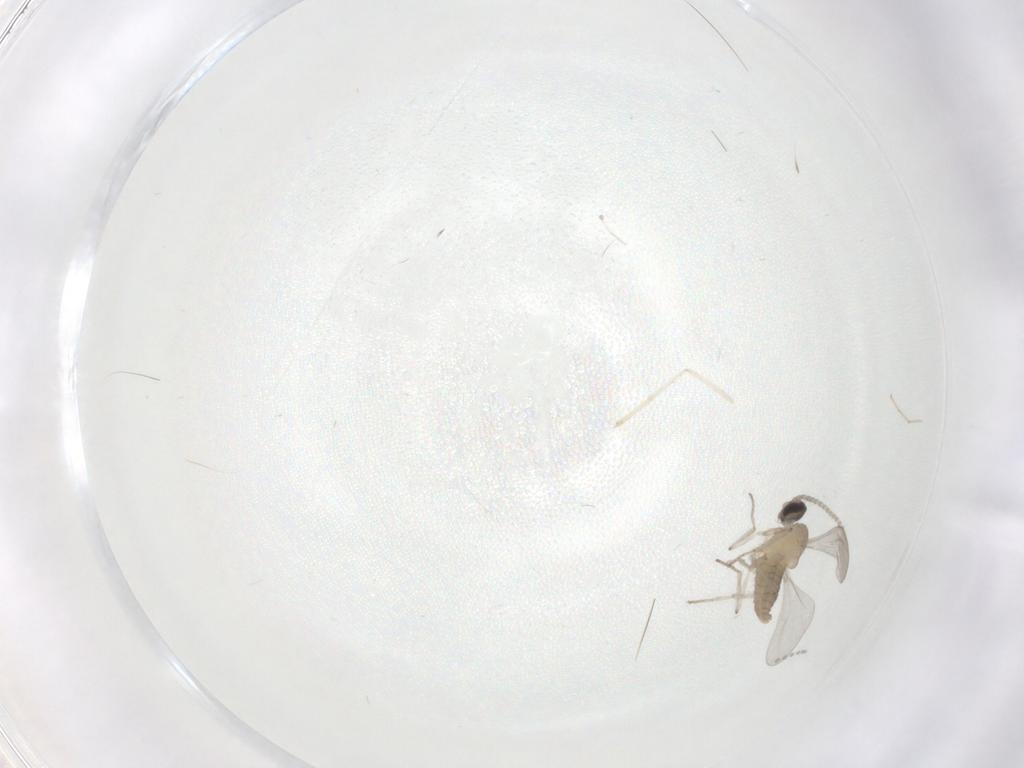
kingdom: Animalia
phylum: Arthropoda
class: Insecta
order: Diptera
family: Cecidomyiidae
